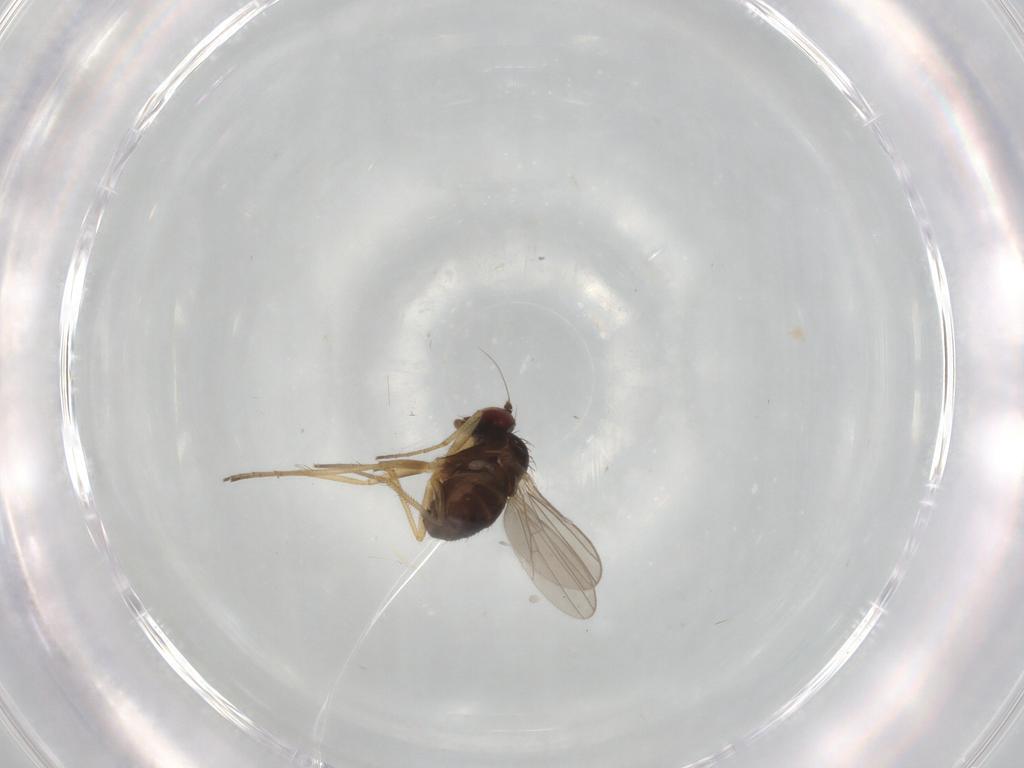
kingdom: Animalia
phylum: Arthropoda
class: Insecta
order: Diptera
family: Dolichopodidae
